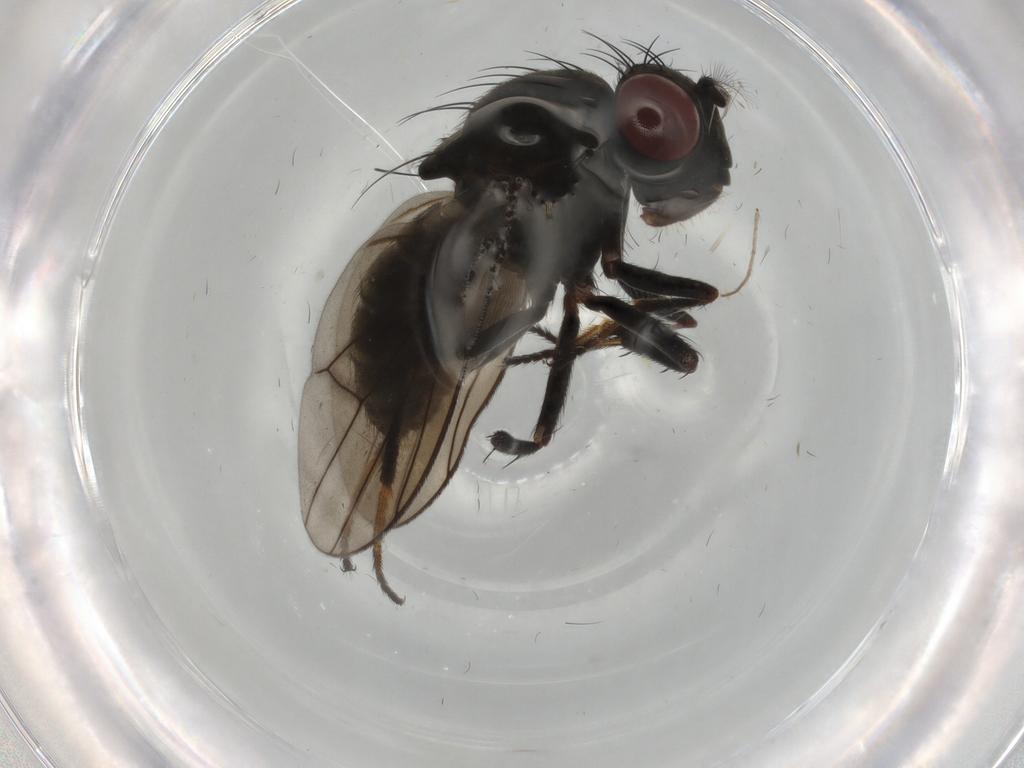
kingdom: Animalia
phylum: Arthropoda
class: Insecta
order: Diptera
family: Ephydridae
